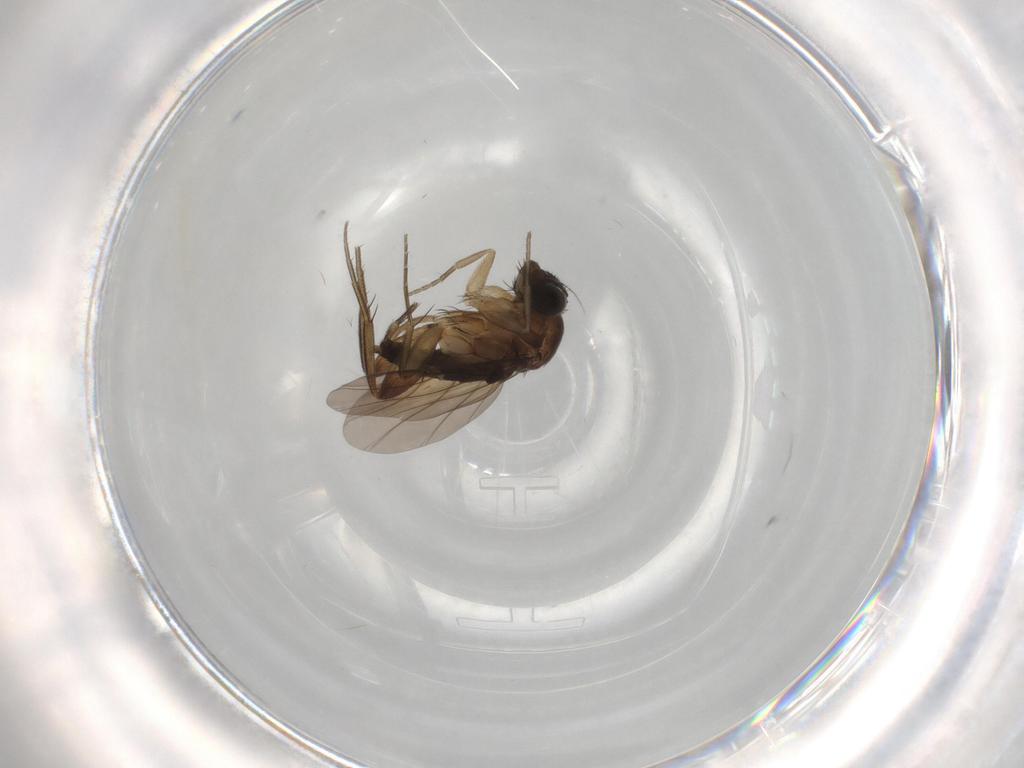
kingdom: Animalia
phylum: Arthropoda
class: Insecta
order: Diptera
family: Phoridae
